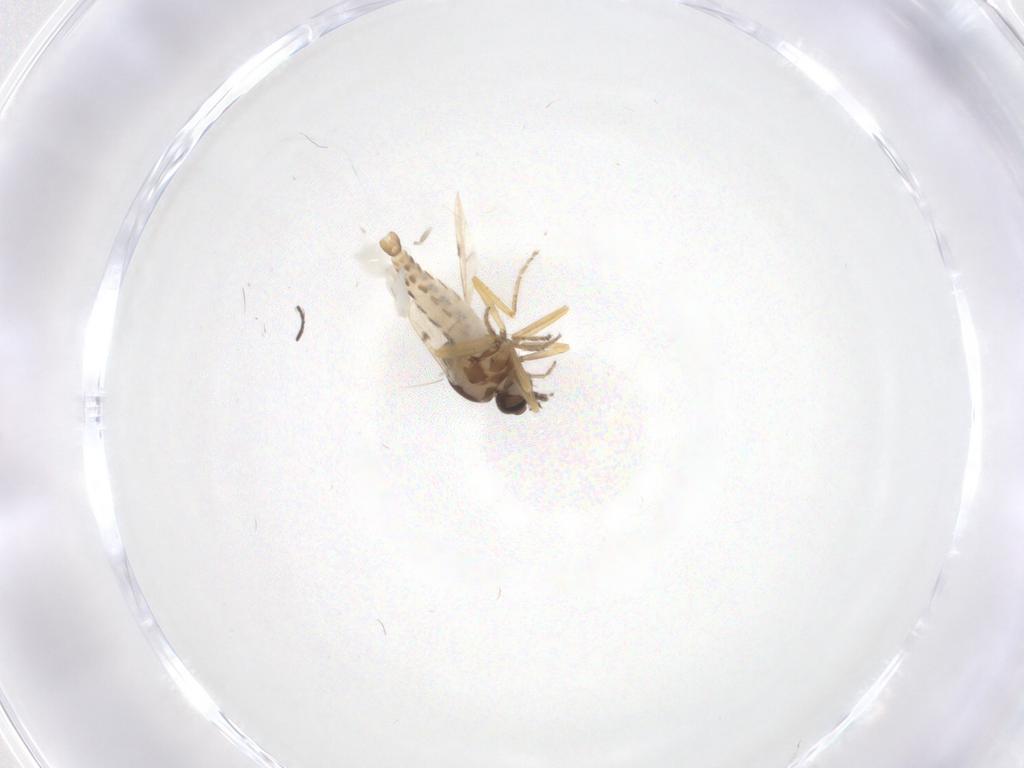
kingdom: Animalia
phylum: Arthropoda
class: Insecta
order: Diptera
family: Ceratopogonidae
